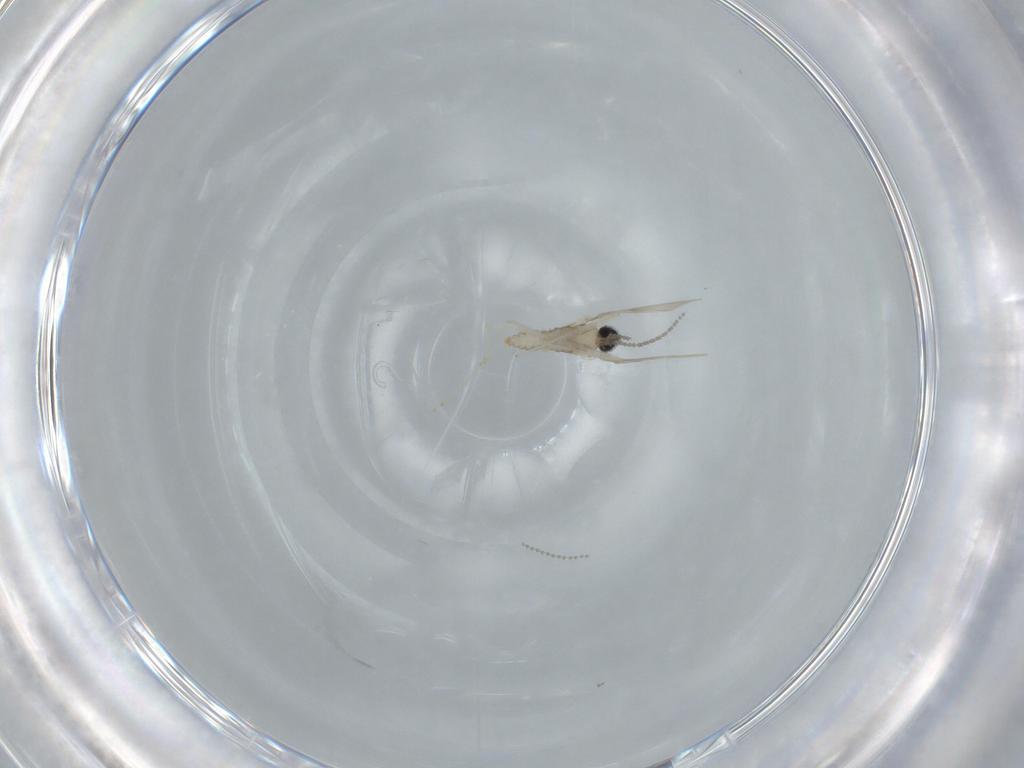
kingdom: Animalia
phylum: Arthropoda
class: Insecta
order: Diptera
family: Cecidomyiidae
